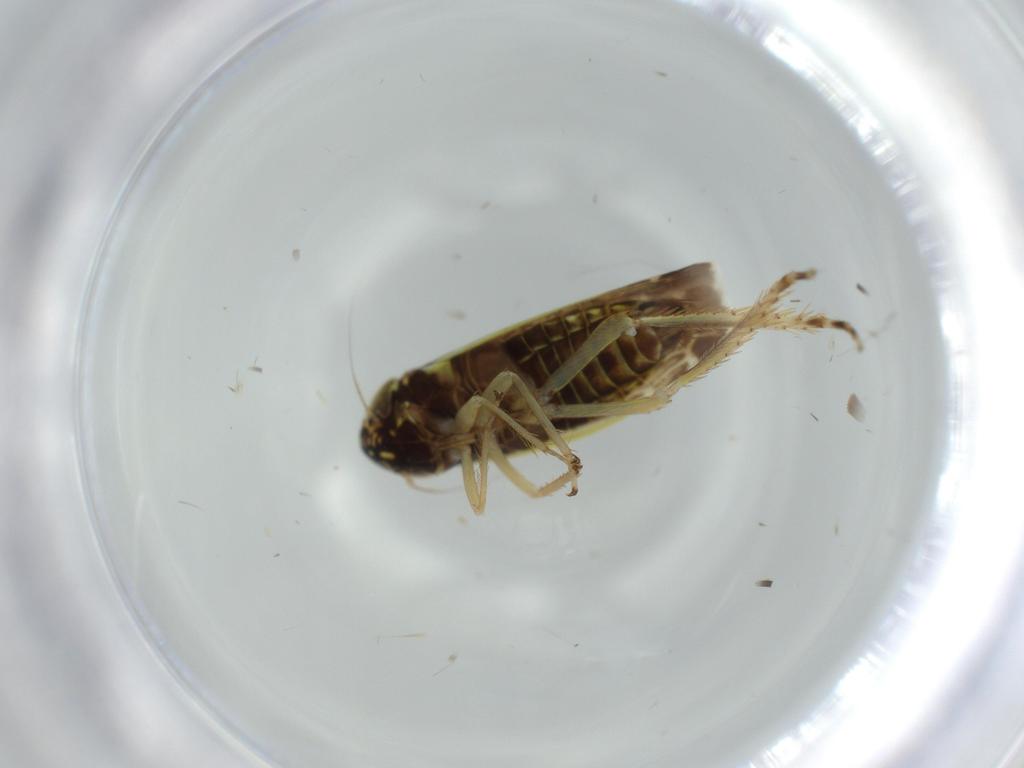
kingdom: Animalia
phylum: Arthropoda
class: Insecta
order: Hemiptera
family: Cicadellidae
